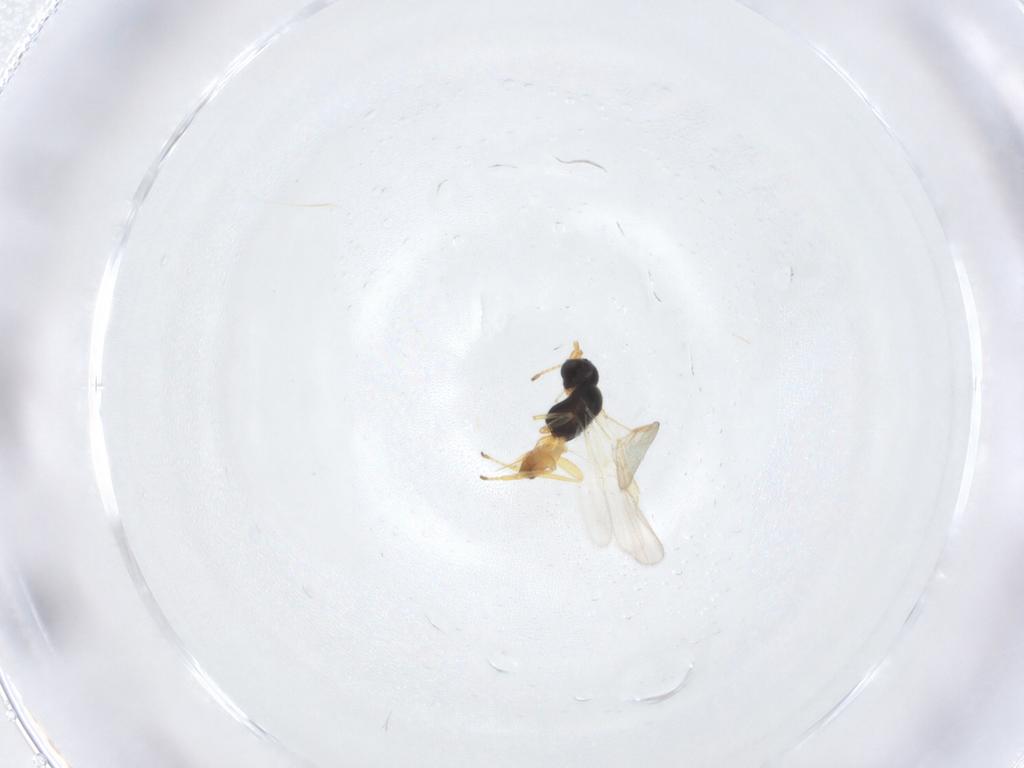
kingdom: Animalia
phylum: Arthropoda
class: Insecta
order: Hymenoptera
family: Braconidae
